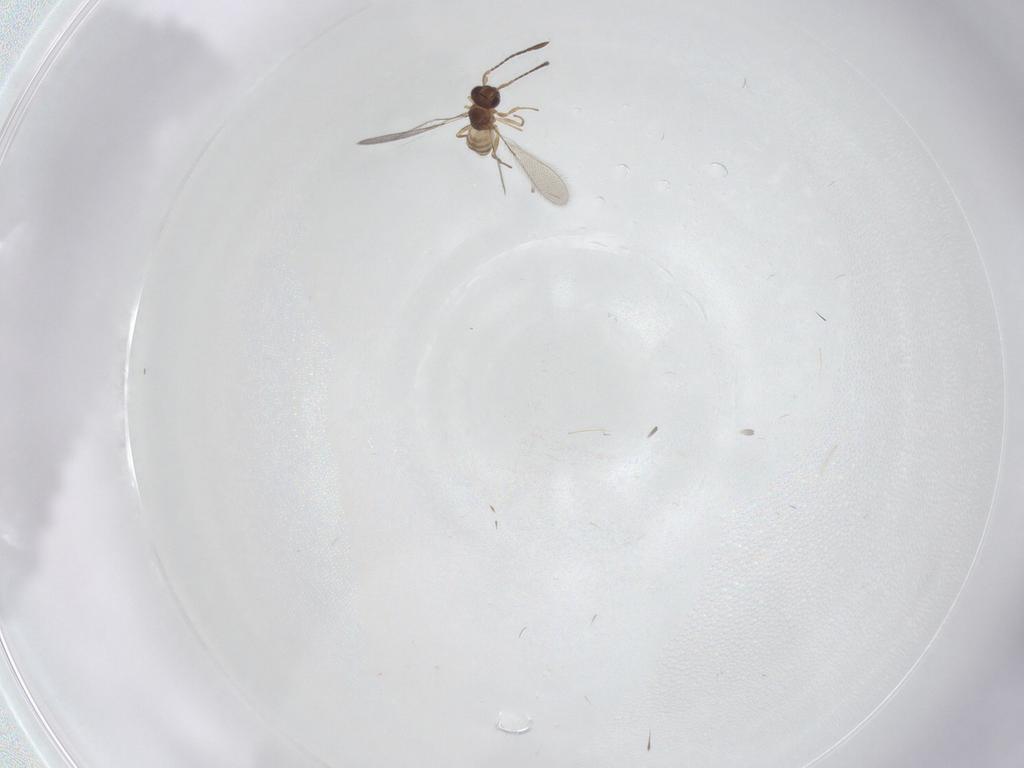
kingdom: Animalia
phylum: Arthropoda
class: Insecta
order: Hymenoptera
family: Mymaridae
